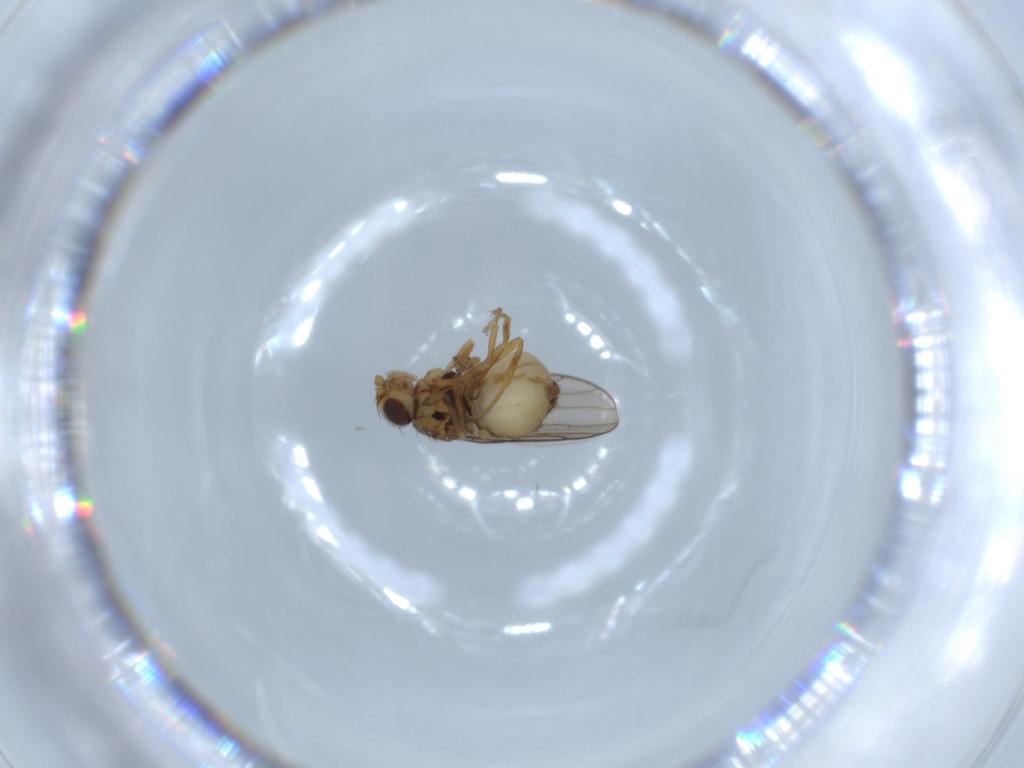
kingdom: Animalia
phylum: Arthropoda
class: Insecta
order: Diptera
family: Chloropidae
